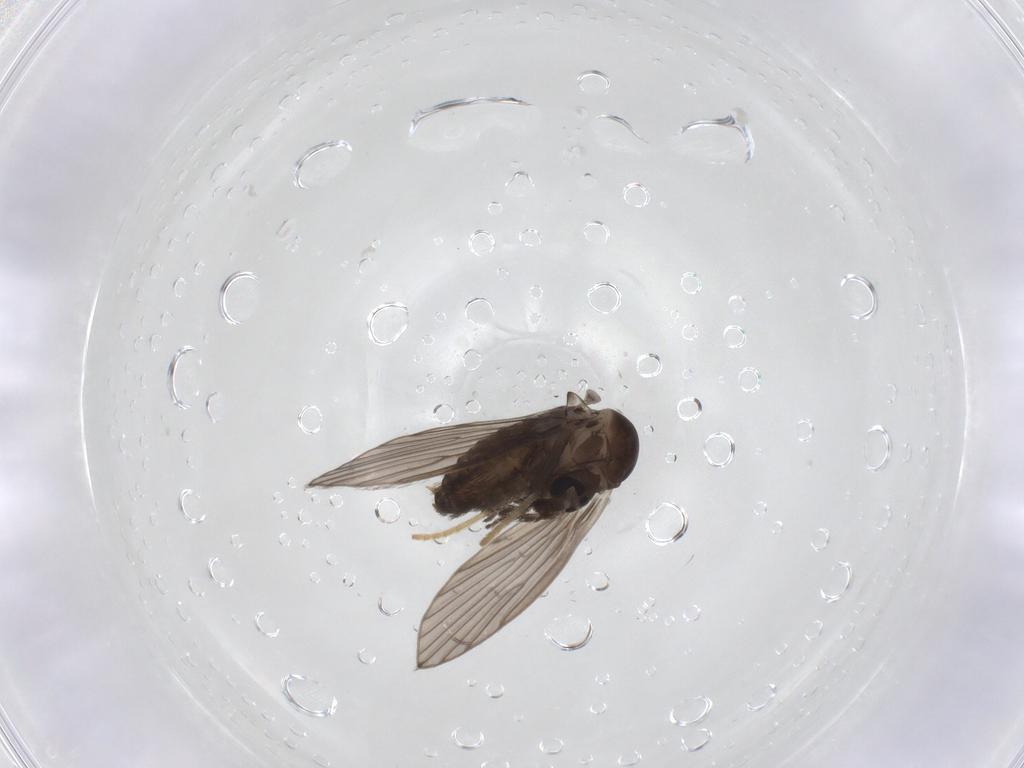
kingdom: Animalia
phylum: Arthropoda
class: Insecta
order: Diptera
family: Psychodidae
